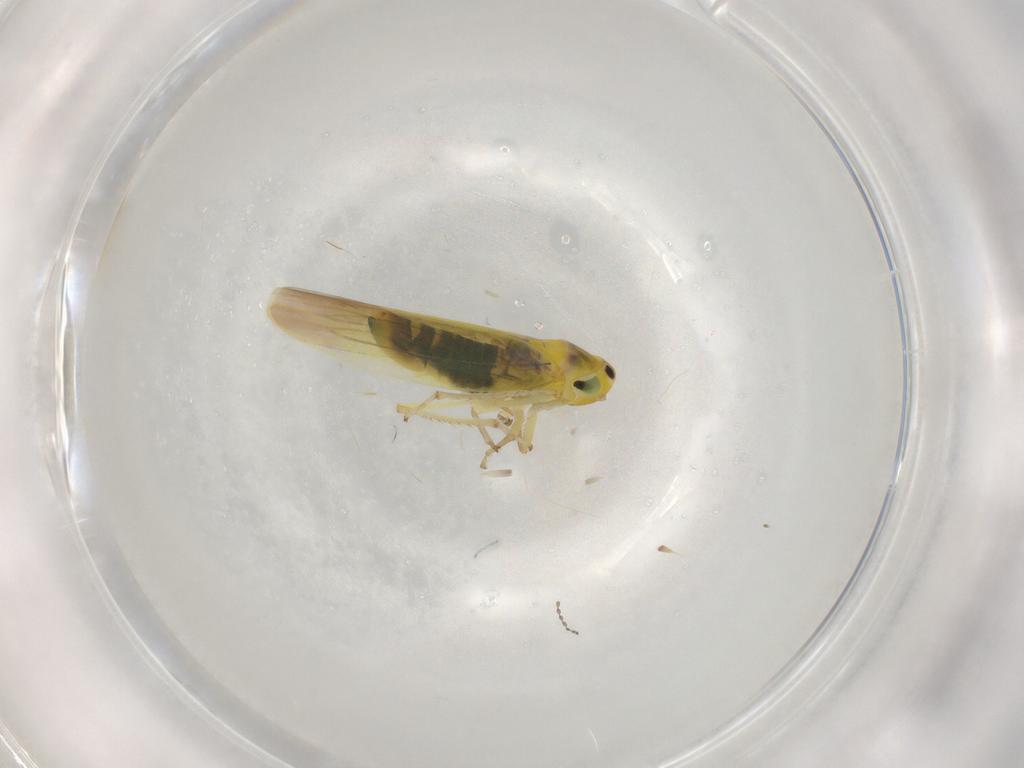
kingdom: Animalia
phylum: Arthropoda
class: Insecta
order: Hemiptera
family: Cicadellidae
